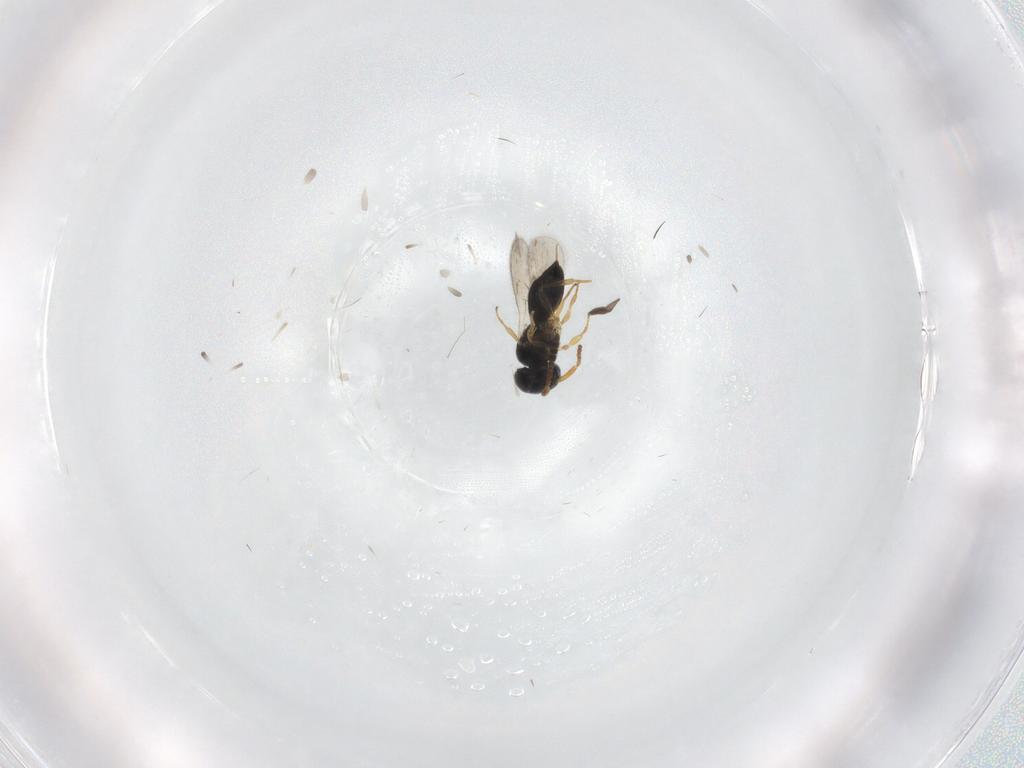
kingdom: Animalia
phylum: Arthropoda
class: Insecta
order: Hymenoptera
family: Scelionidae
